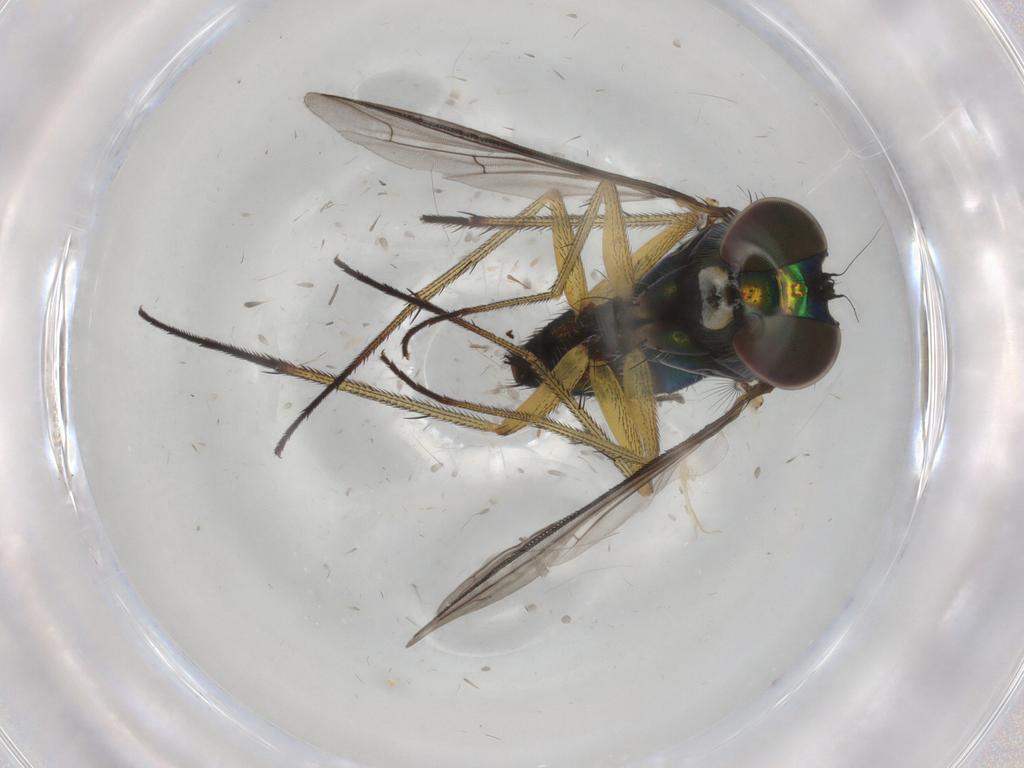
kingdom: Animalia
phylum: Arthropoda
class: Insecta
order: Diptera
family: Dolichopodidae
